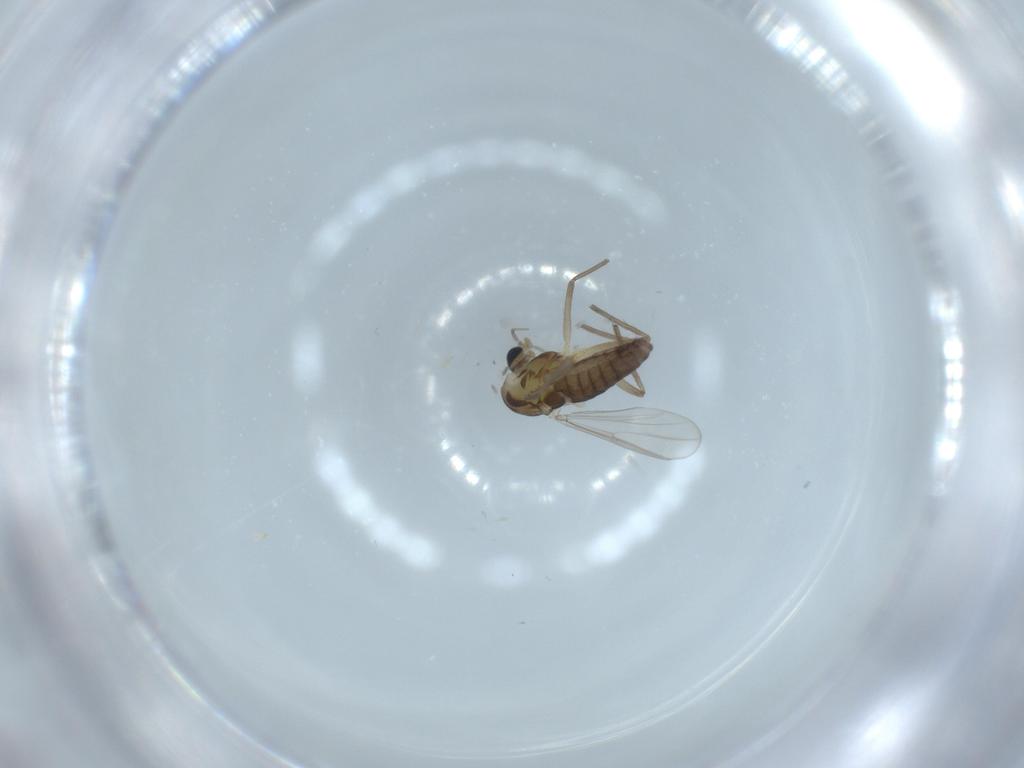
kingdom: Animalia
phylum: Arthropoda
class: Insecta
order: Diptera
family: Chironomidae
